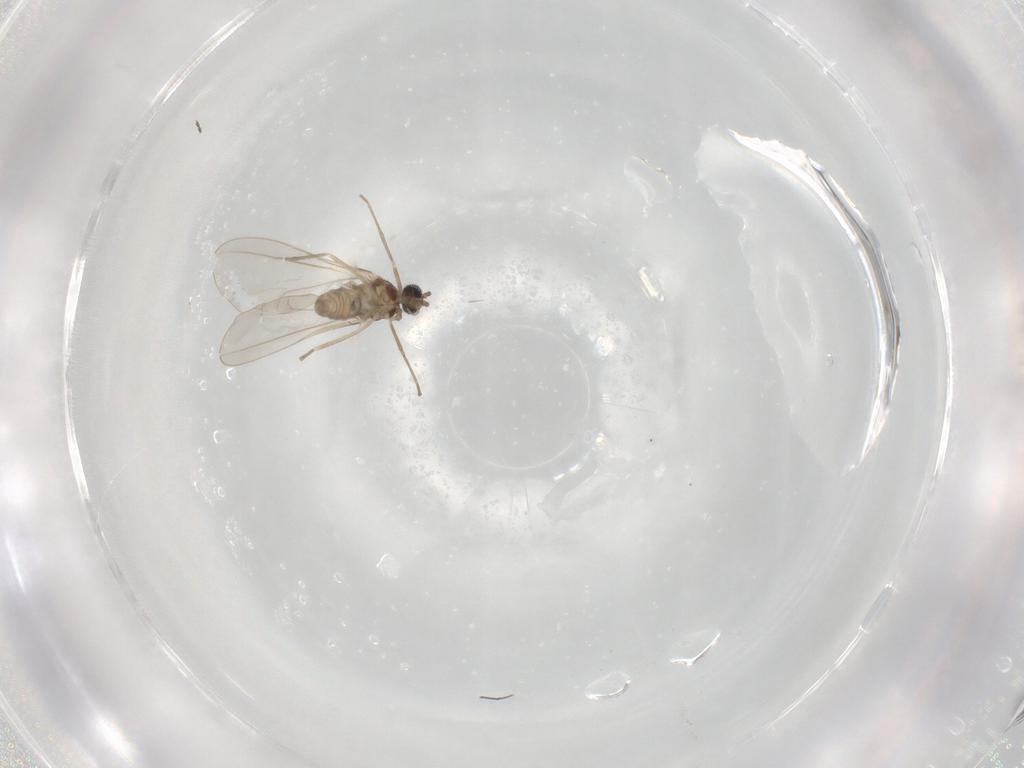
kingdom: Animalia
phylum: Arthropoda
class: Insecta
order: Diptera
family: Cecidomyiidae
